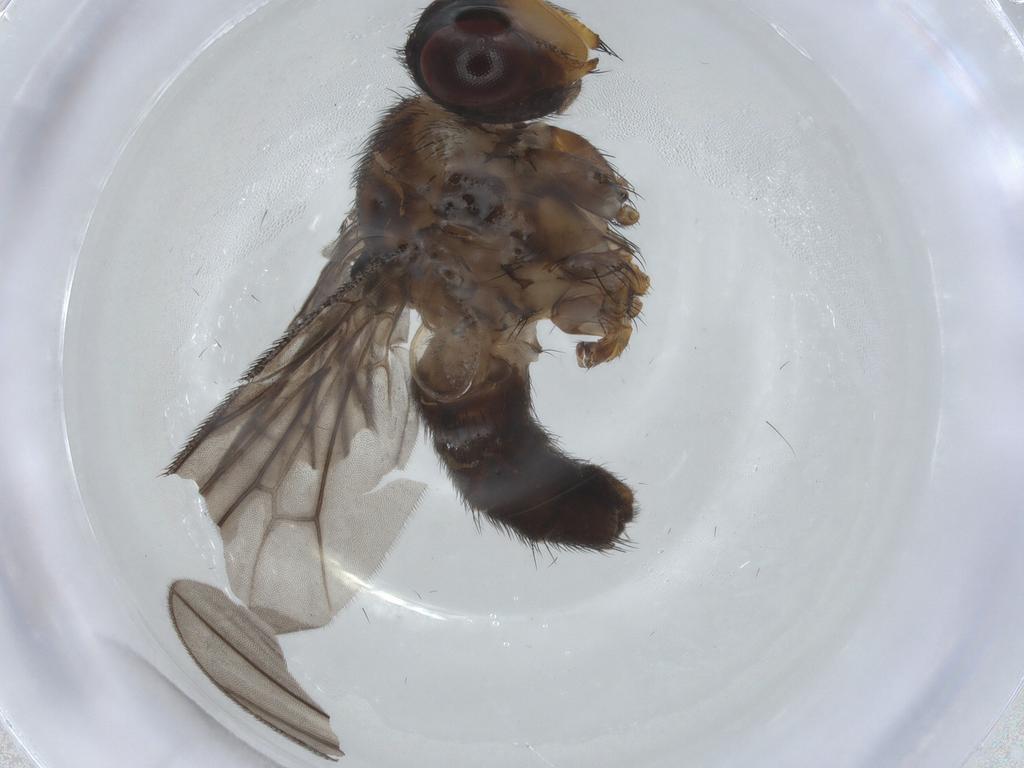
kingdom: Animalia
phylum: Arthropoda
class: Insecta
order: Diptera
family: Calliphoridae
